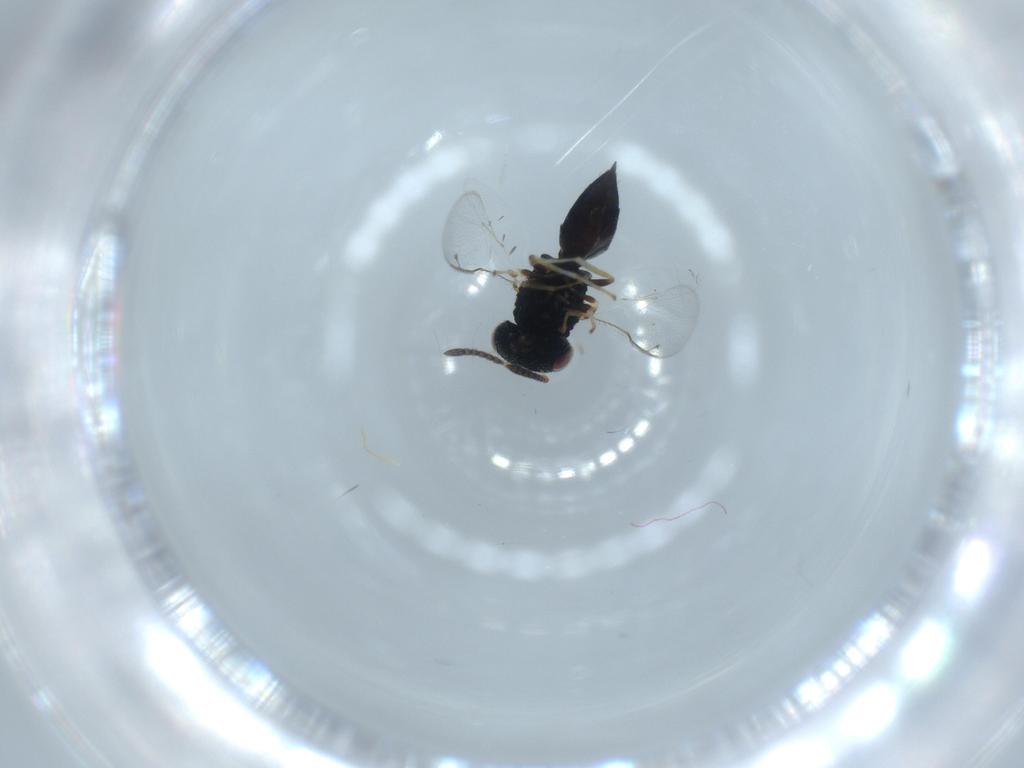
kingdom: Animalia
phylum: Arthropoda
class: Insecta
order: Hymenoptera
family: Pteromalidae
